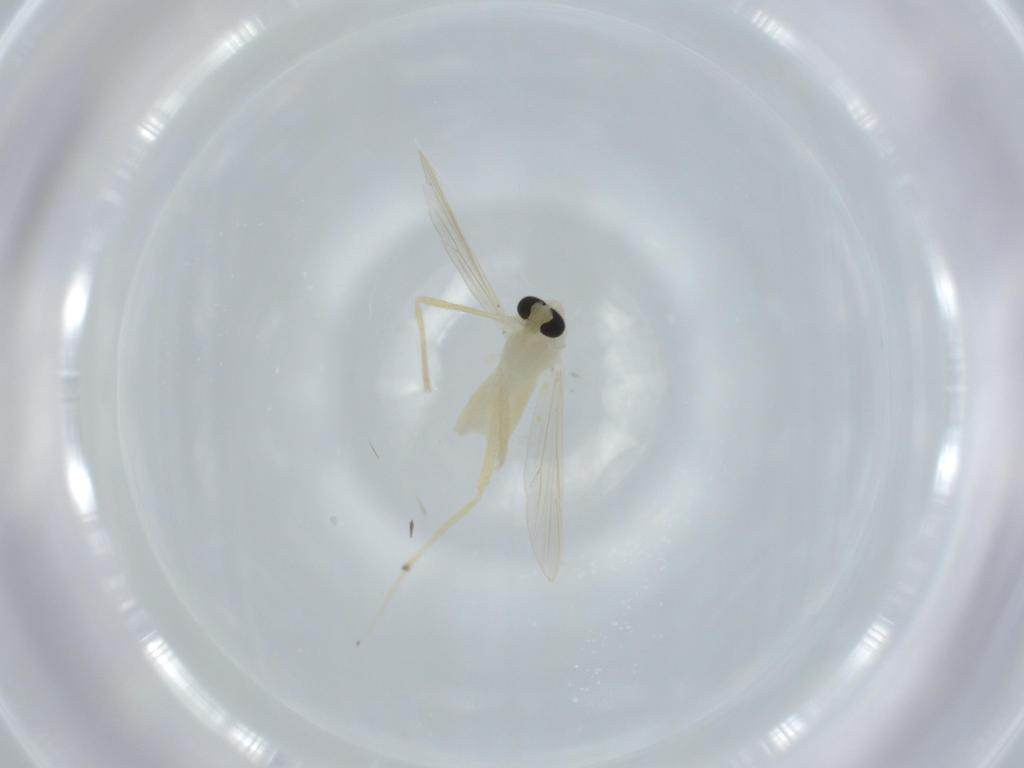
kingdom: Animalia
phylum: Arthropoda
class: Insecta
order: Diptera
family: Chironomidae
